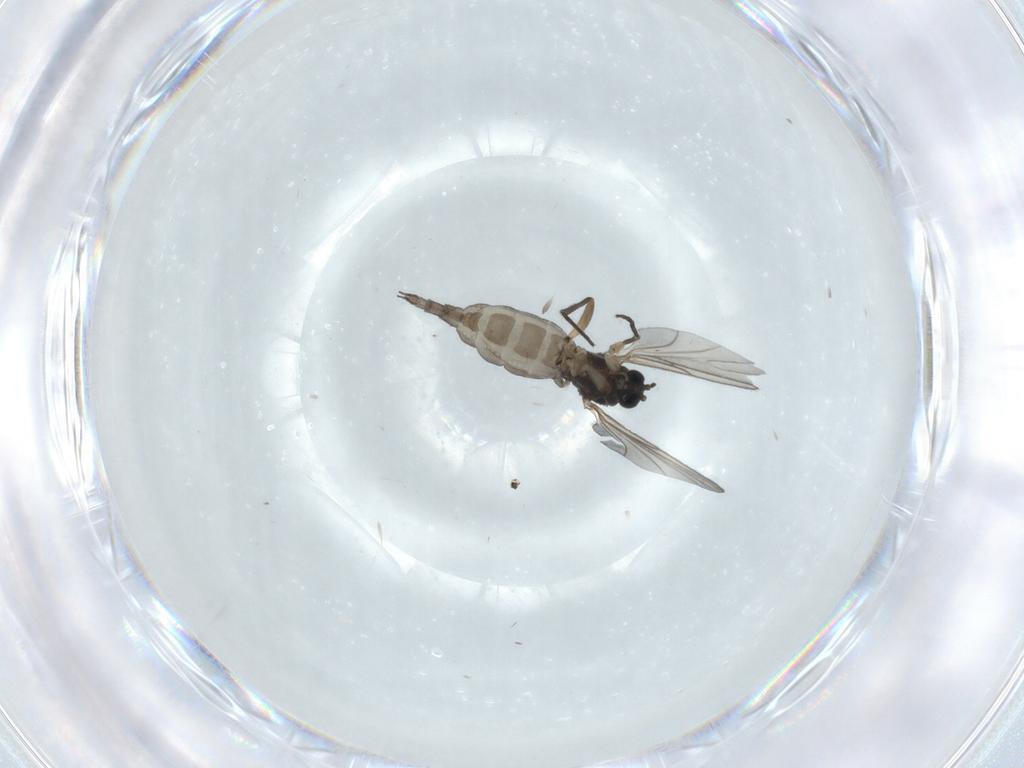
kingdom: Animalia
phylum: Arthropoda
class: Insecta
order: Diptera
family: Sciaridae
